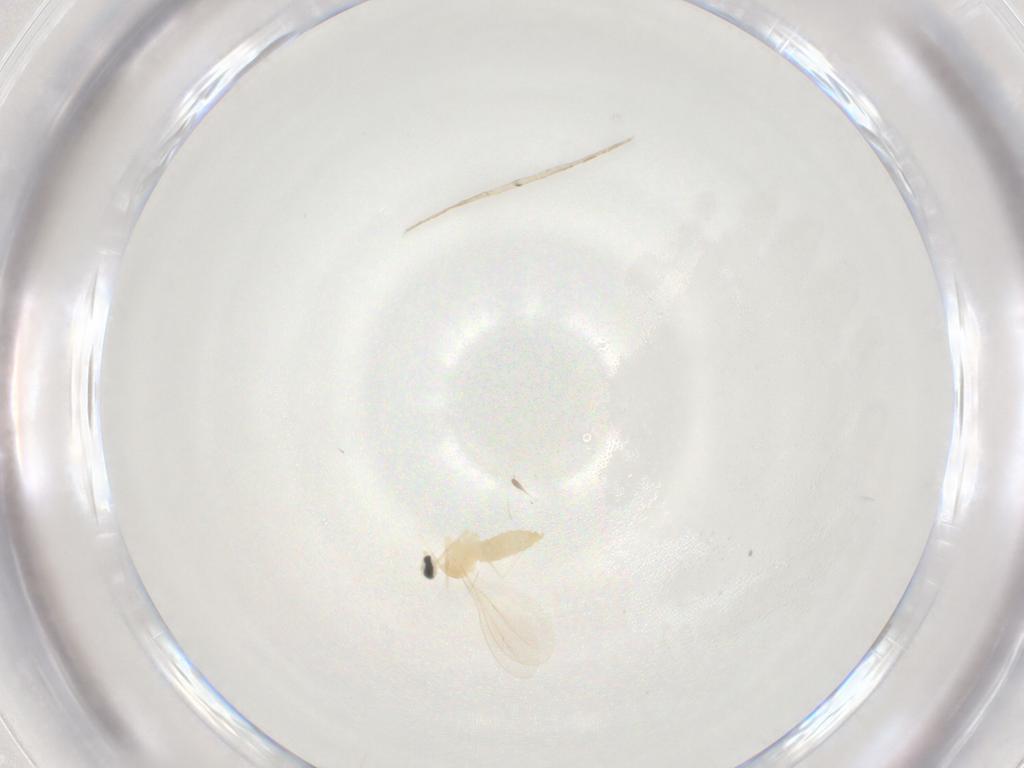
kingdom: Animalia
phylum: Arthropoda
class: Insecta
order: Diptera
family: Cecidomyiidae
